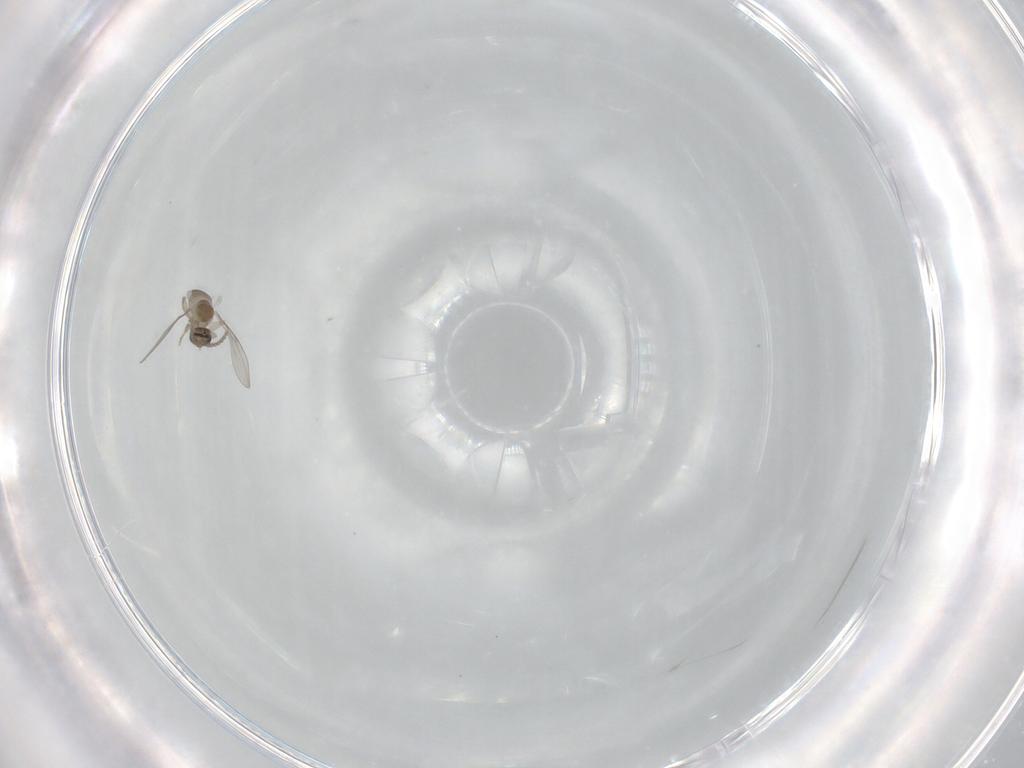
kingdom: Animalia
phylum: Arthropoda
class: Insecta
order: Diptera
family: Cecidomyiidae
